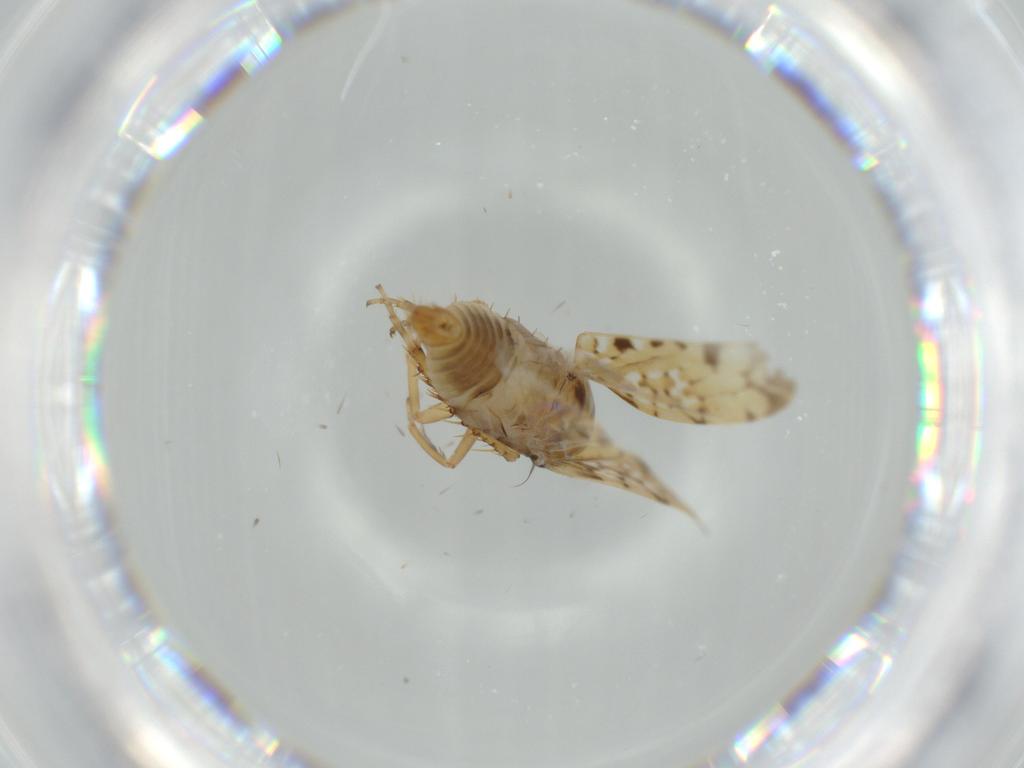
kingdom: Animalia
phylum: Arthropoda
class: Insecta
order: Hemiptera
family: Cicadellidae
